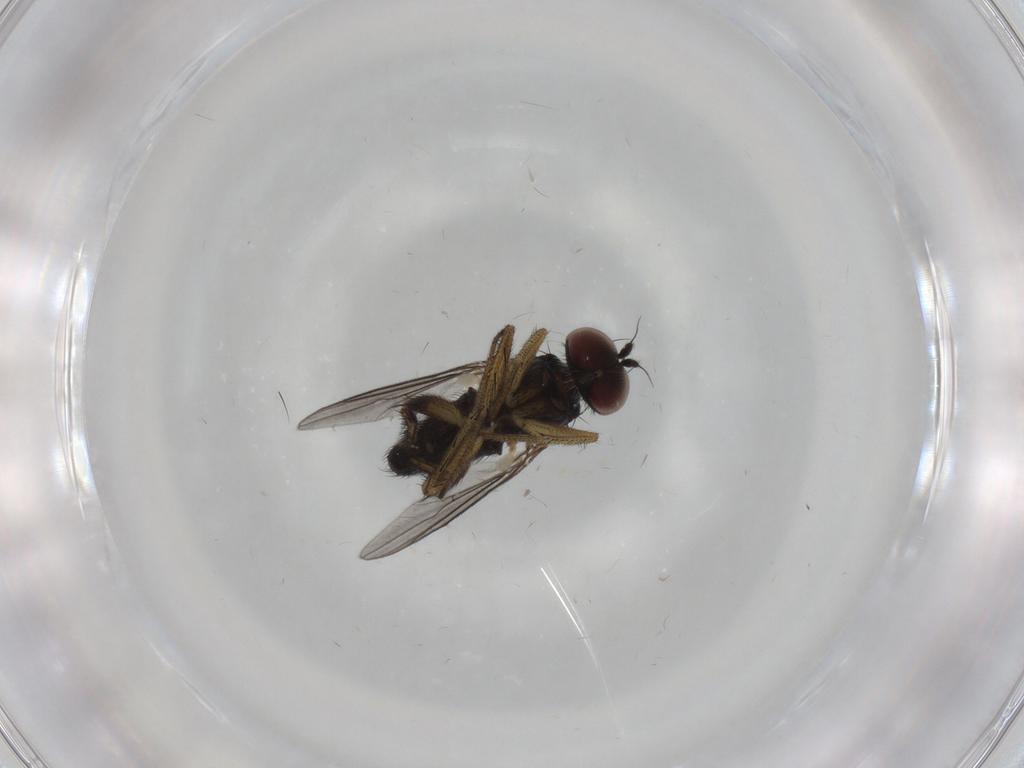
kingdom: Animalia
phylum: Arthropoda
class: Insecta
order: Diptera
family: Dolichopodidae
